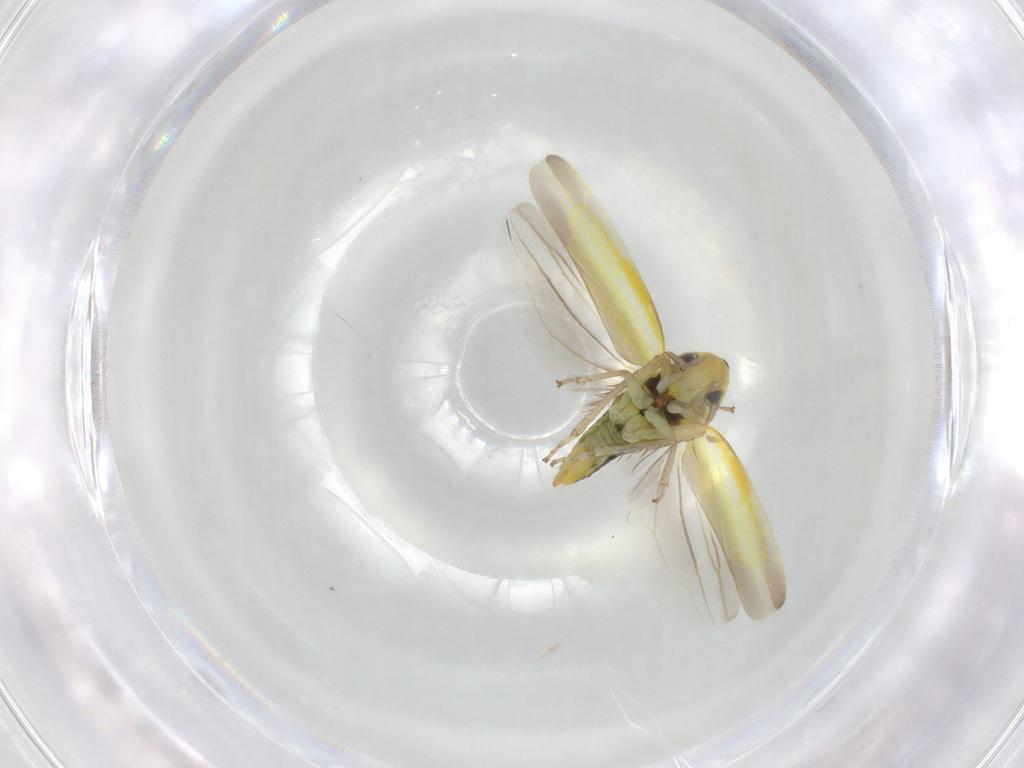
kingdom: Animalia
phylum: Arthropoda
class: Insecta
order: Hemiptera
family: Cicadellidae
